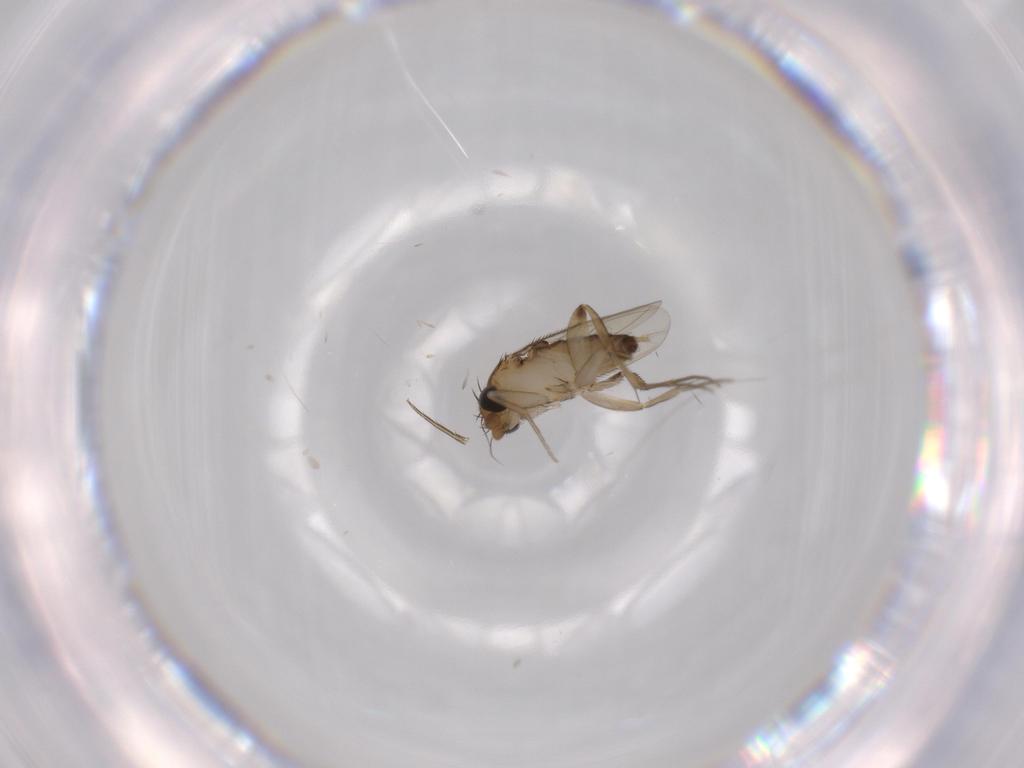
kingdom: Animalia
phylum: Arthropoda
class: Insecta
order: Diptera
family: Phoridae
